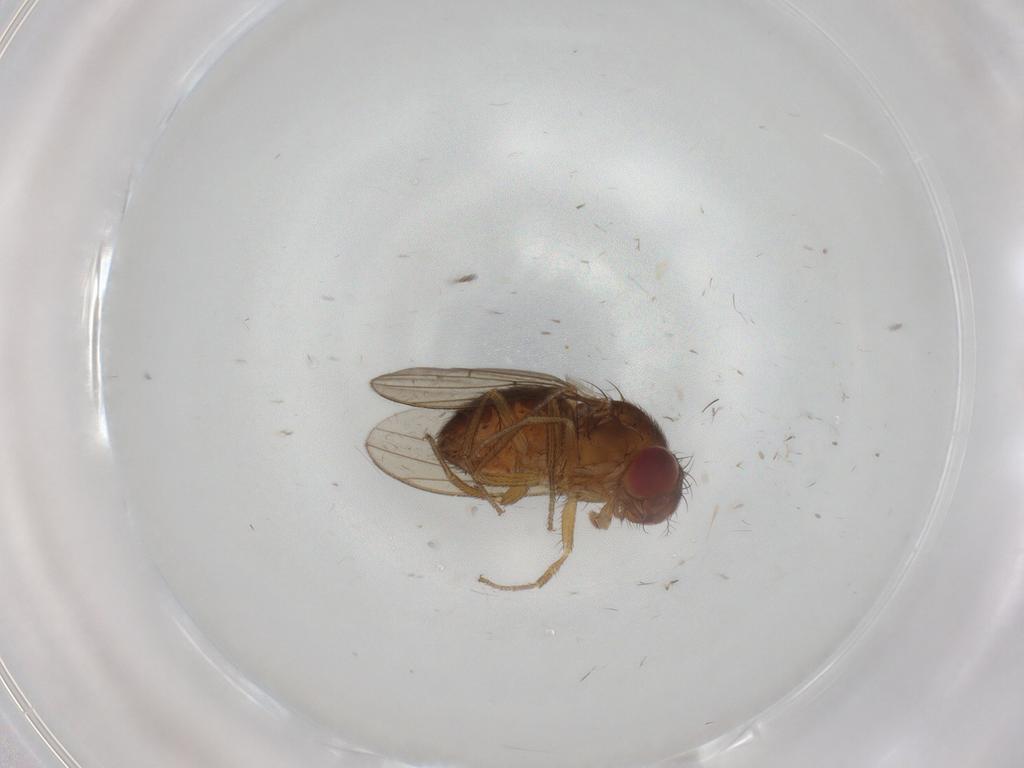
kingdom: Animalia
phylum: Arthropoda
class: Insecta
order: Diptera
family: Drosophilidae
